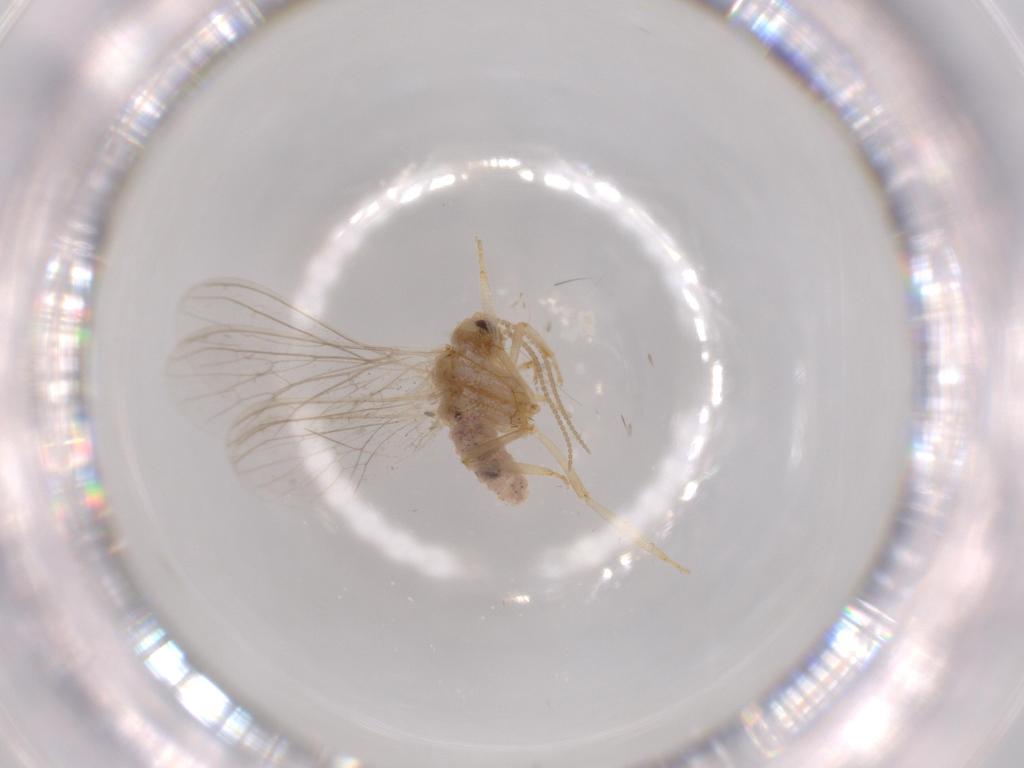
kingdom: Animalia
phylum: Arthropoda
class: Insecta
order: Neuroptera
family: Coniopterygidae
